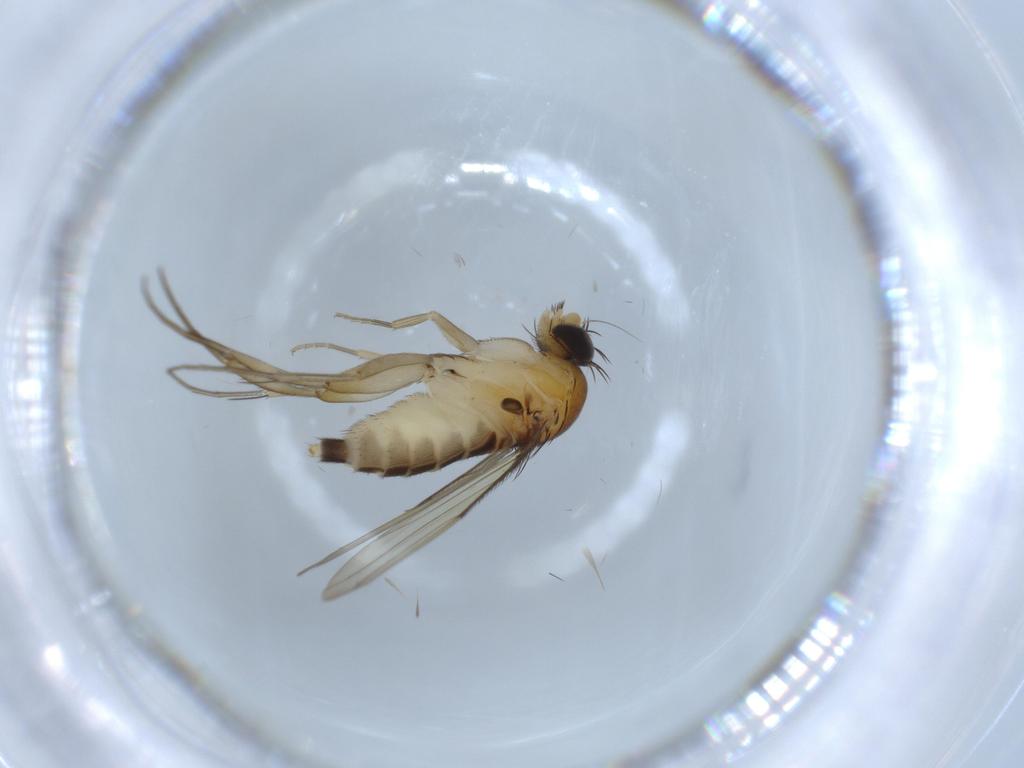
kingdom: Animalia
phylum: Arthropoda
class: Insecta
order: Diptera
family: Phoridae
